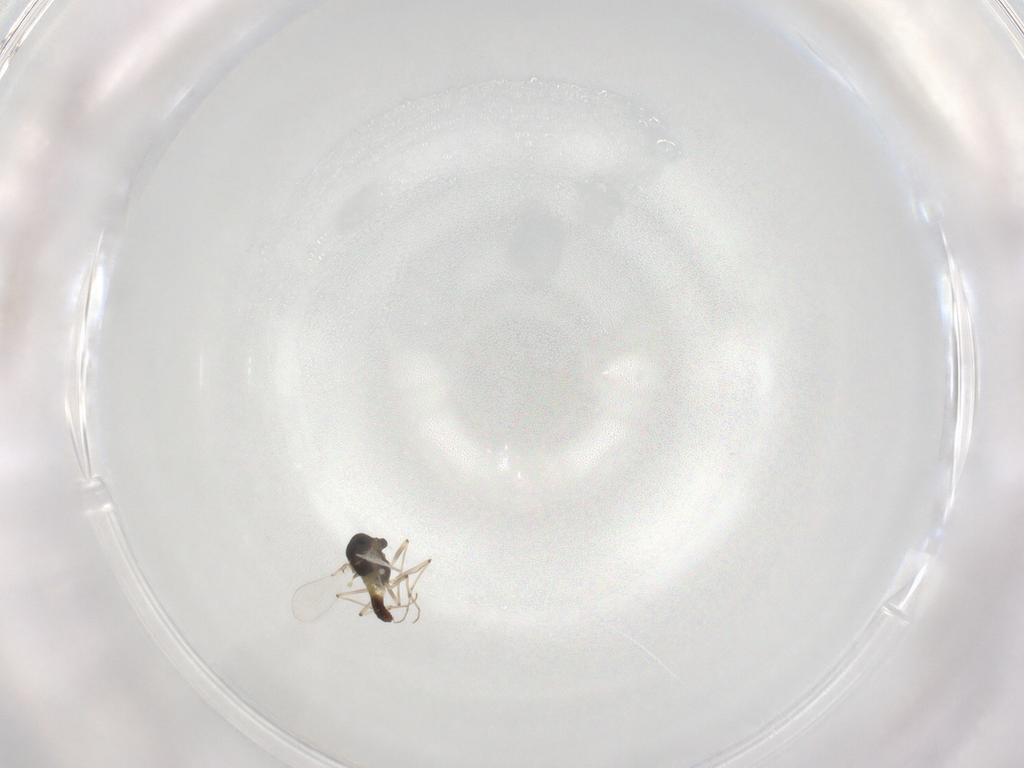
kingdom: Animalia
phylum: Arthropoda
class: Insecta
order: Diptera
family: Chironomidae
